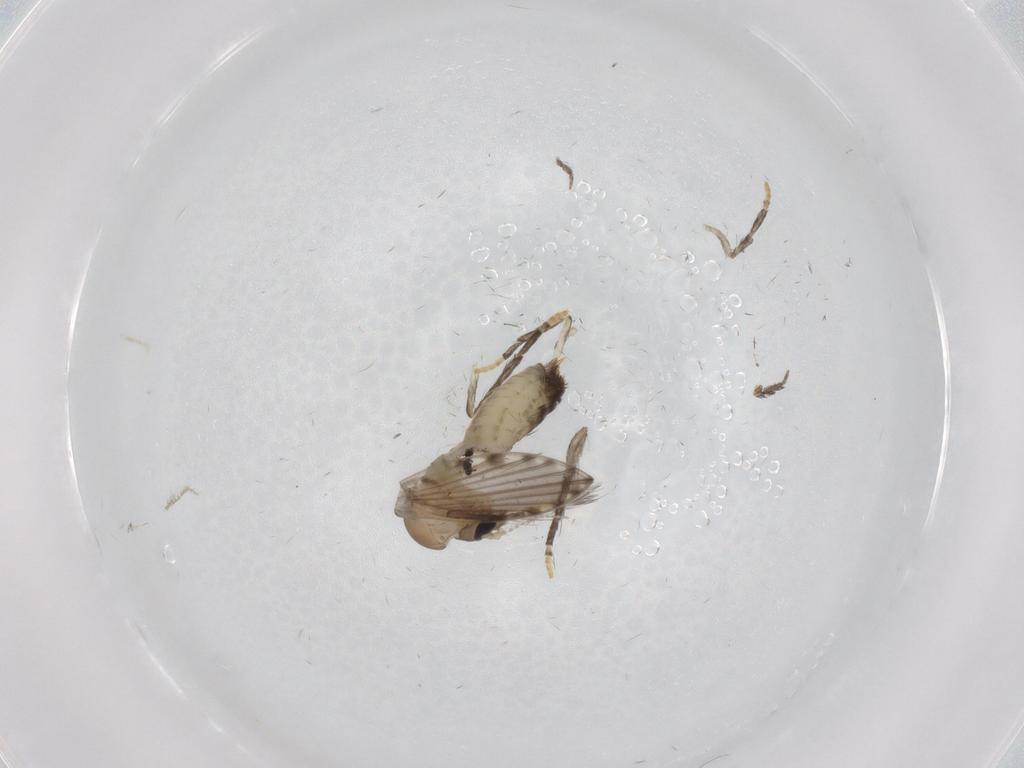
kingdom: Animalia
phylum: Arthropoda
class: Insecta
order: Diptera
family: Psychodidae
